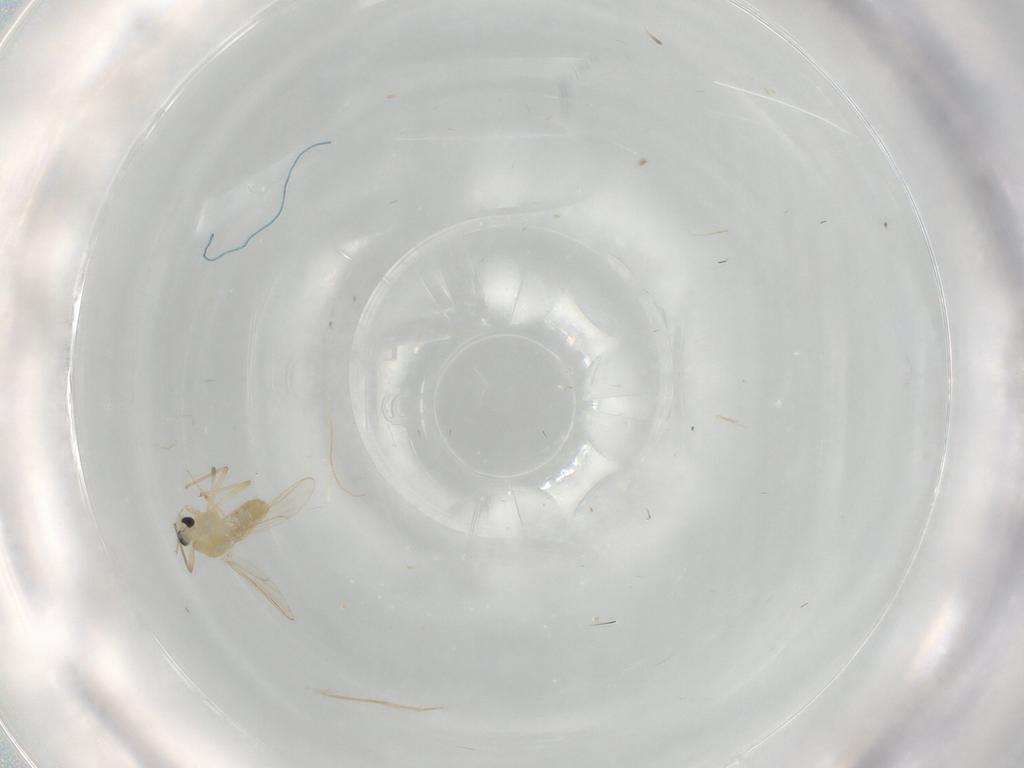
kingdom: Animalia
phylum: Arthropoda
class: Insecta
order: Diptera
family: Chironomidae
